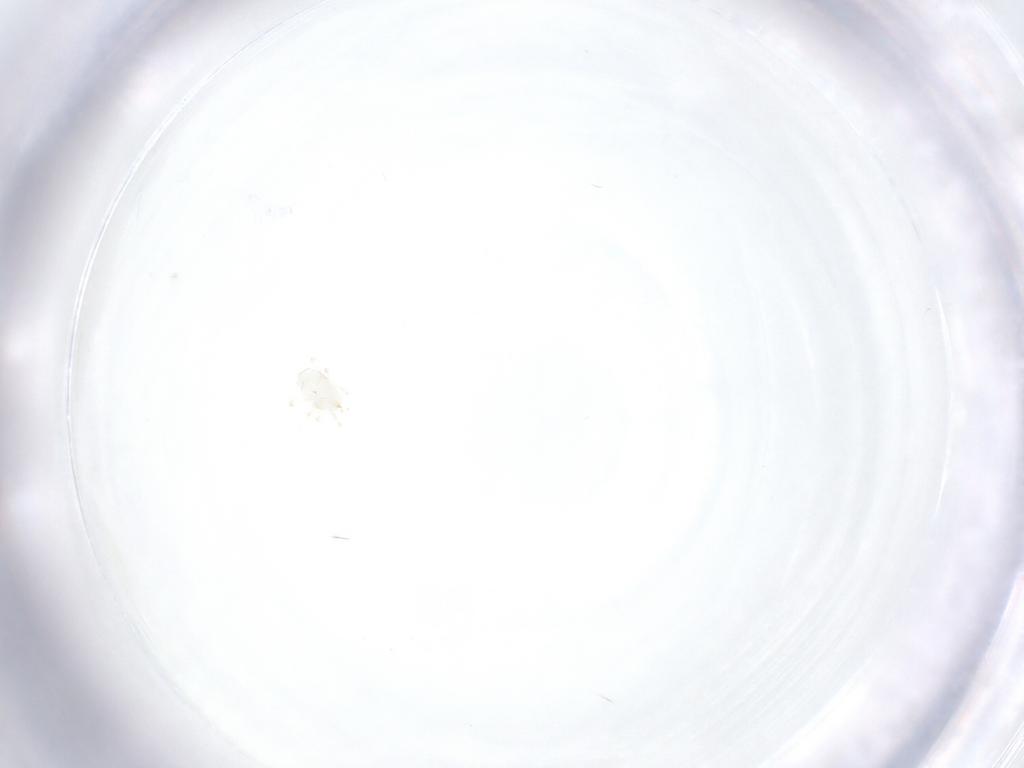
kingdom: Animalia
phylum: Arthropoda
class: Arachnida
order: Mesostigmata
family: Phytoseiidae
